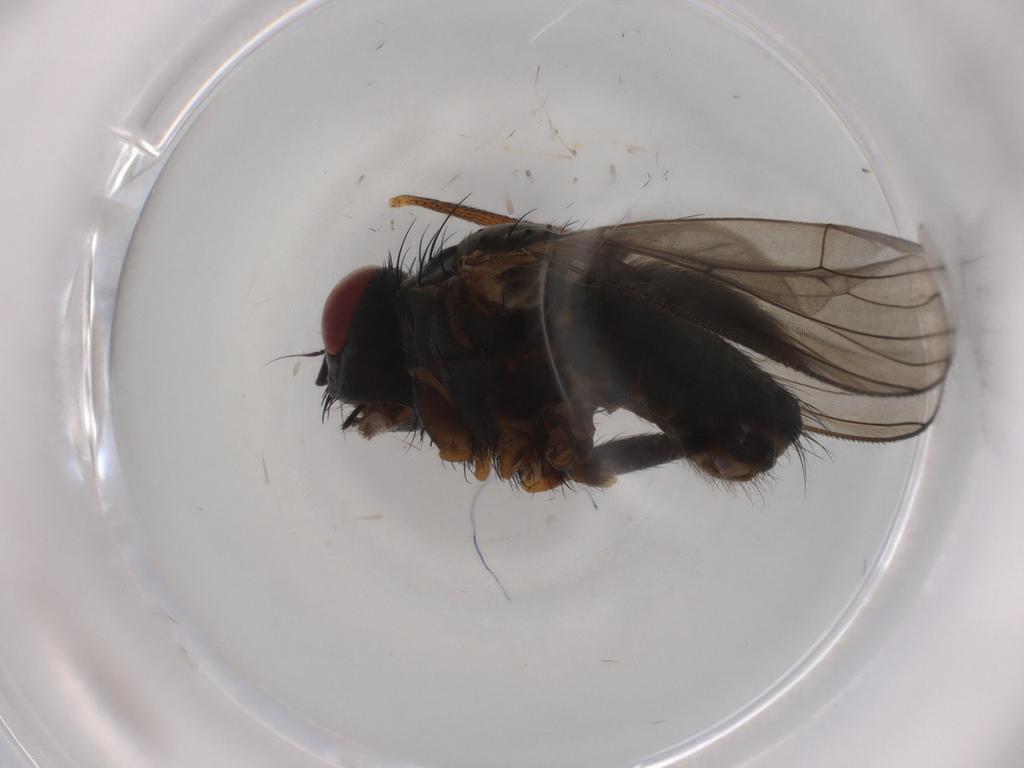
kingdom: Animalia
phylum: Arthropoda
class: Insecta
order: Diptera
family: Muscidae
